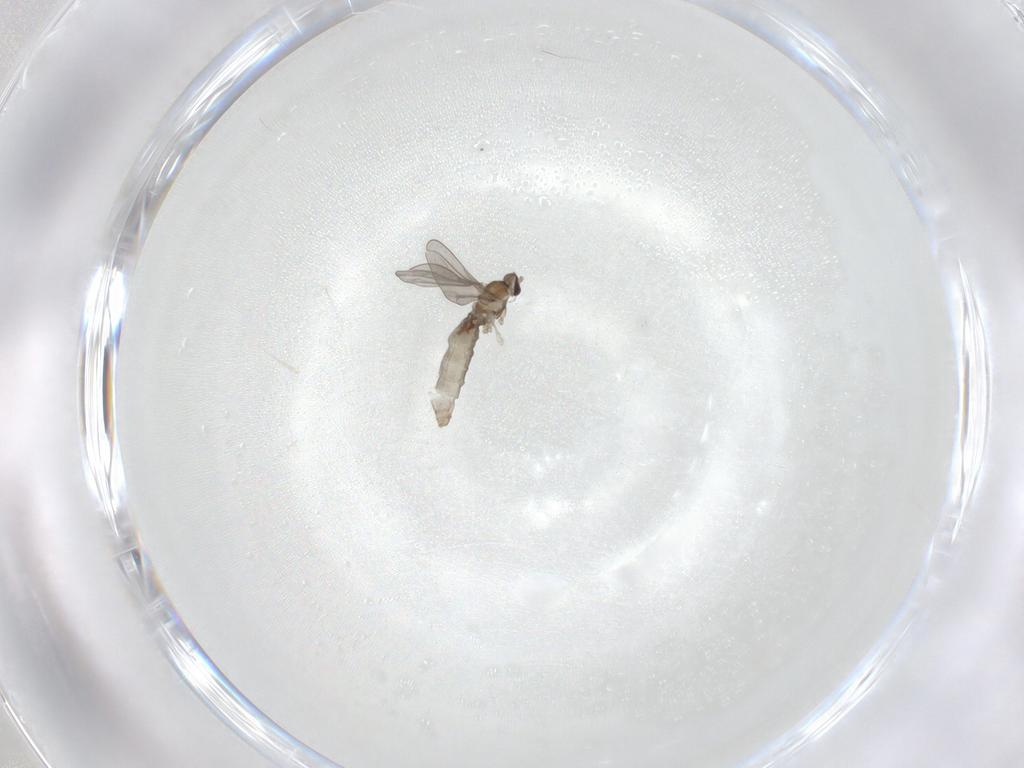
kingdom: Animalia
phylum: Arthropoda
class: Insecta
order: Diptera
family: Cecidomyiidae
